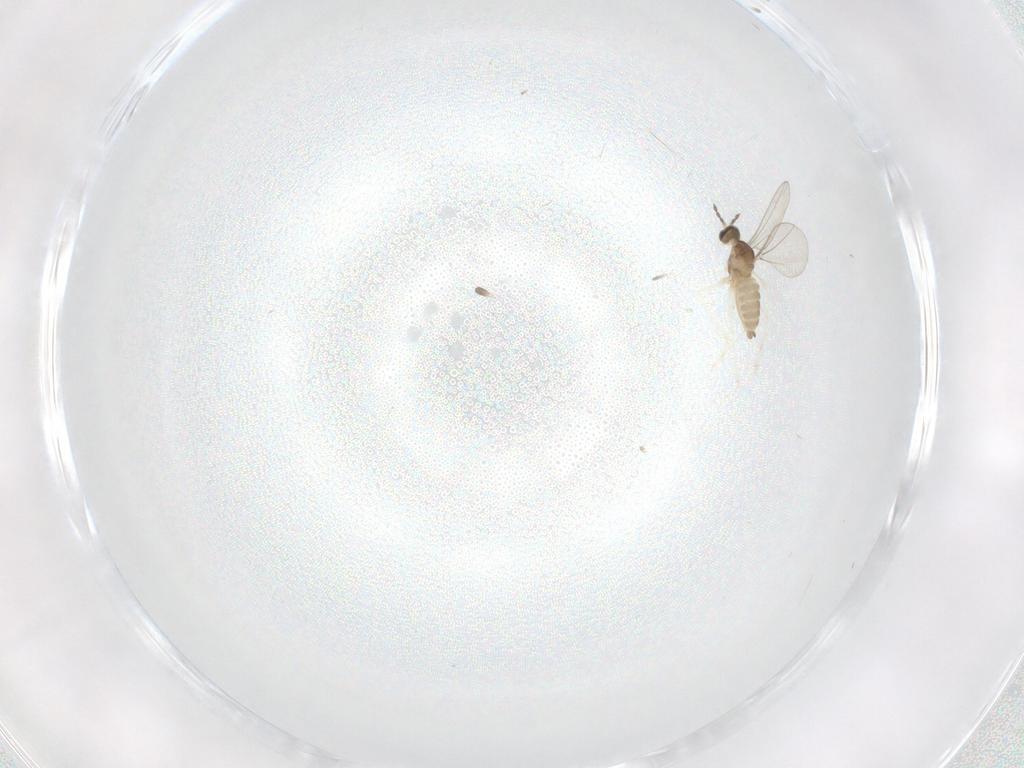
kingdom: Animalia
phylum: Arthropoda
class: Insecta
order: Diptera
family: Cecidomyiidae
